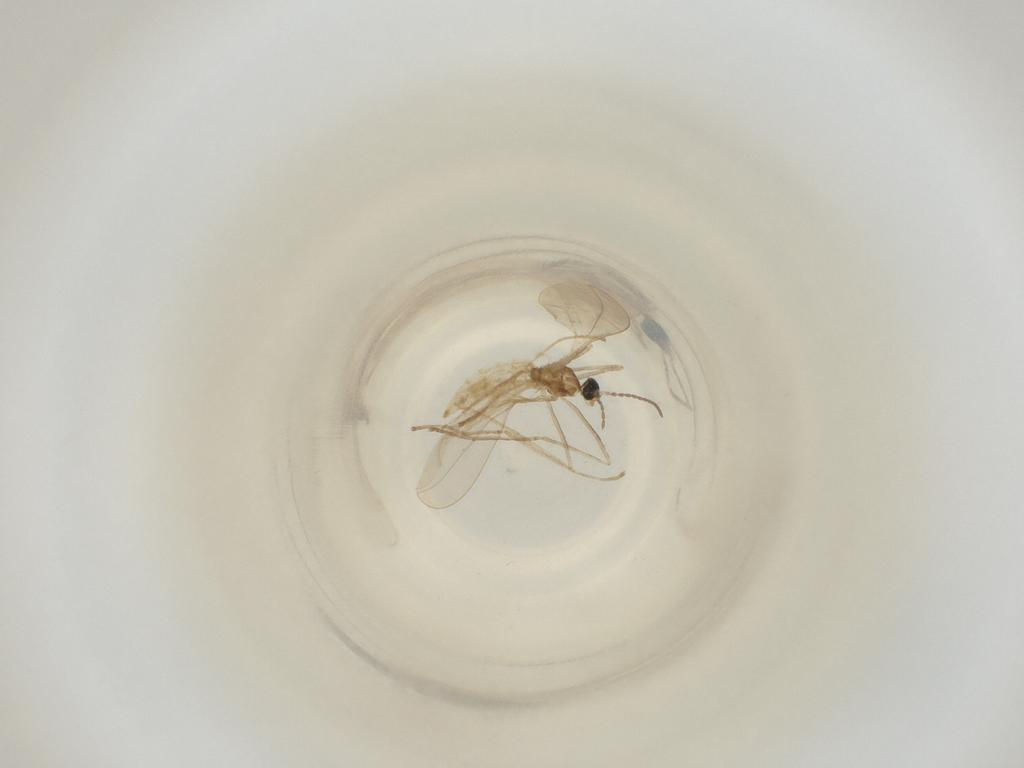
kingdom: Animalia
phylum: Arthropoda
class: Insecta
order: Diptera
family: Cecidomyiidae
